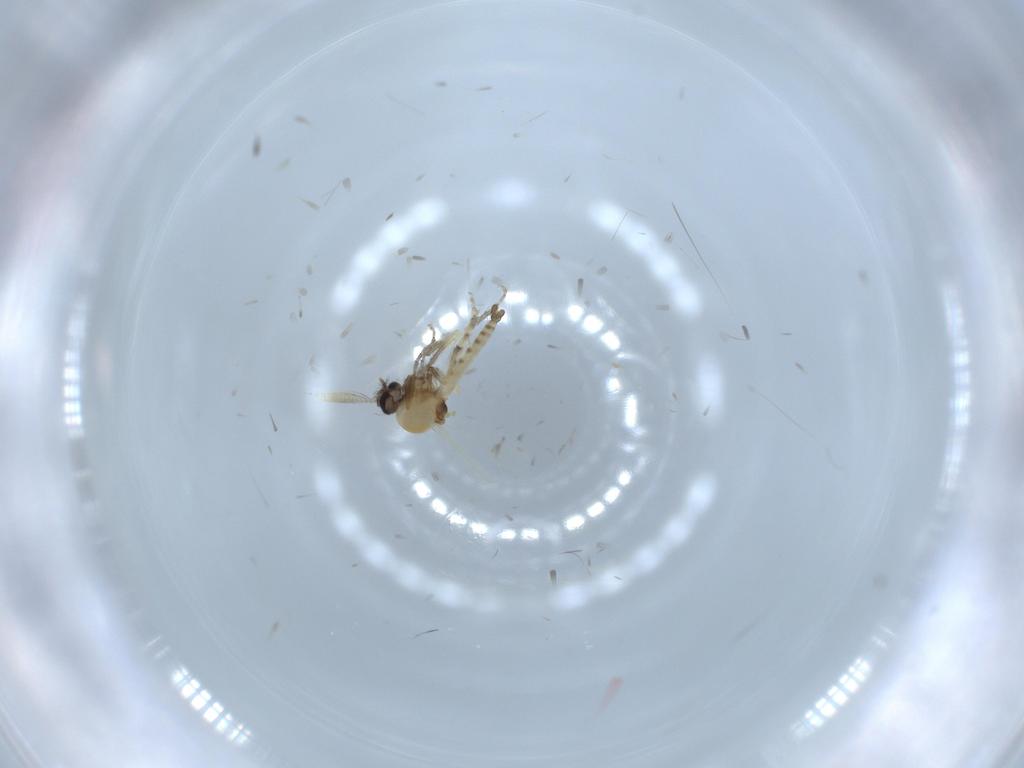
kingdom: Animalia
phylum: Arthropoda
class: Insecta
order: Diptera
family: Ceratopogonidae
